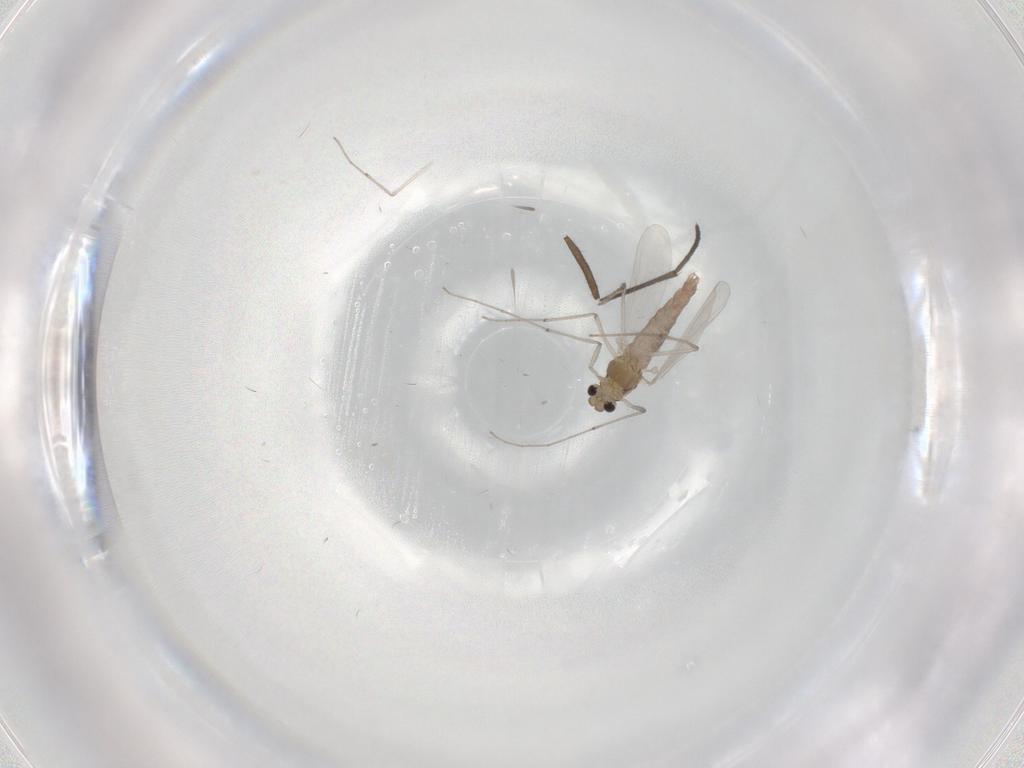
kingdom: Animalia
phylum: Arthropoda
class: Insecta
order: Diptera
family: Chironomidae
